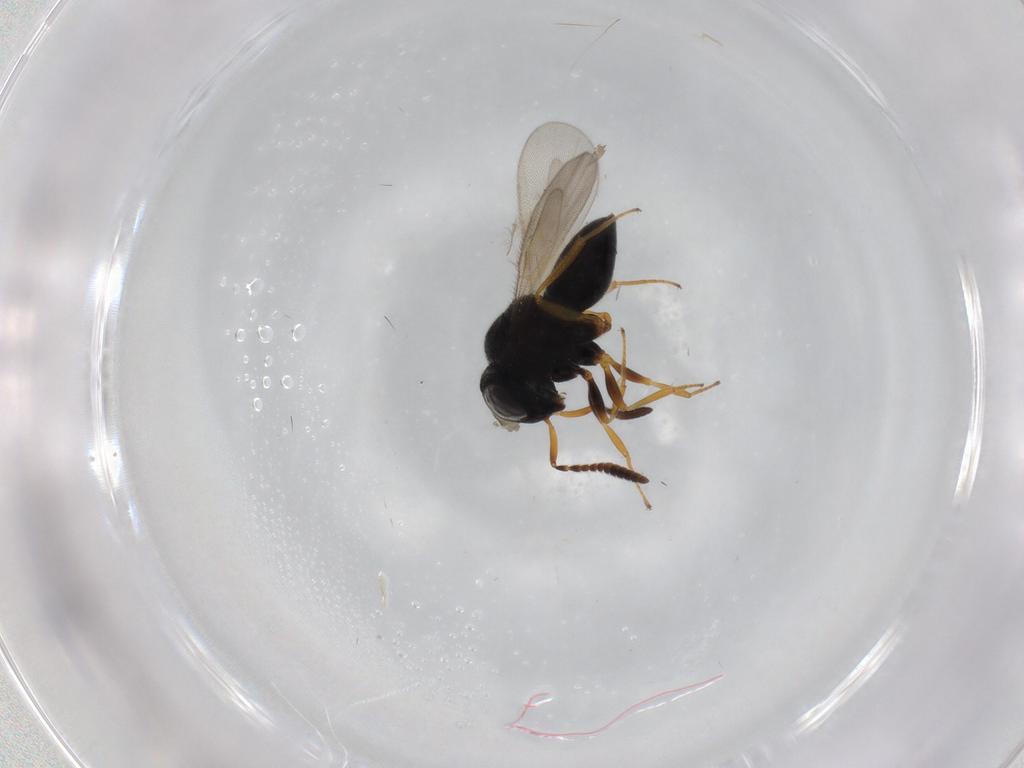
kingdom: Animalia
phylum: Arthropoda
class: Insecta
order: Hymenoptera
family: Scelionidae
